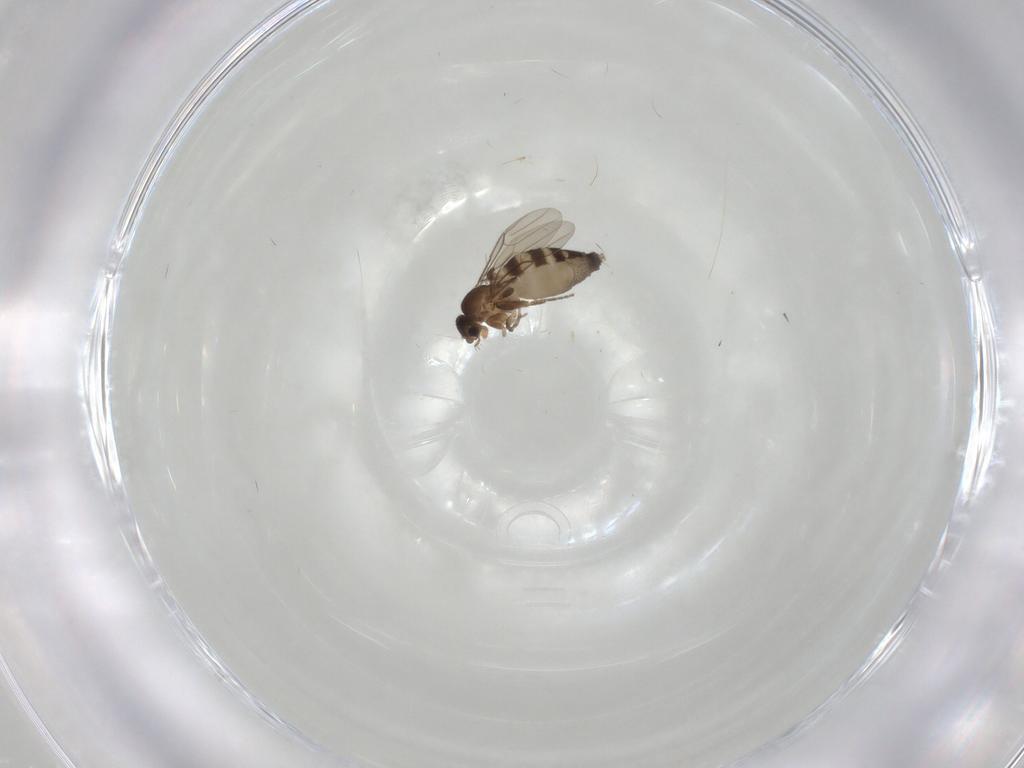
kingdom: Animalia
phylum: Arthropoda
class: Insecta
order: Diptera
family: Phoridae
